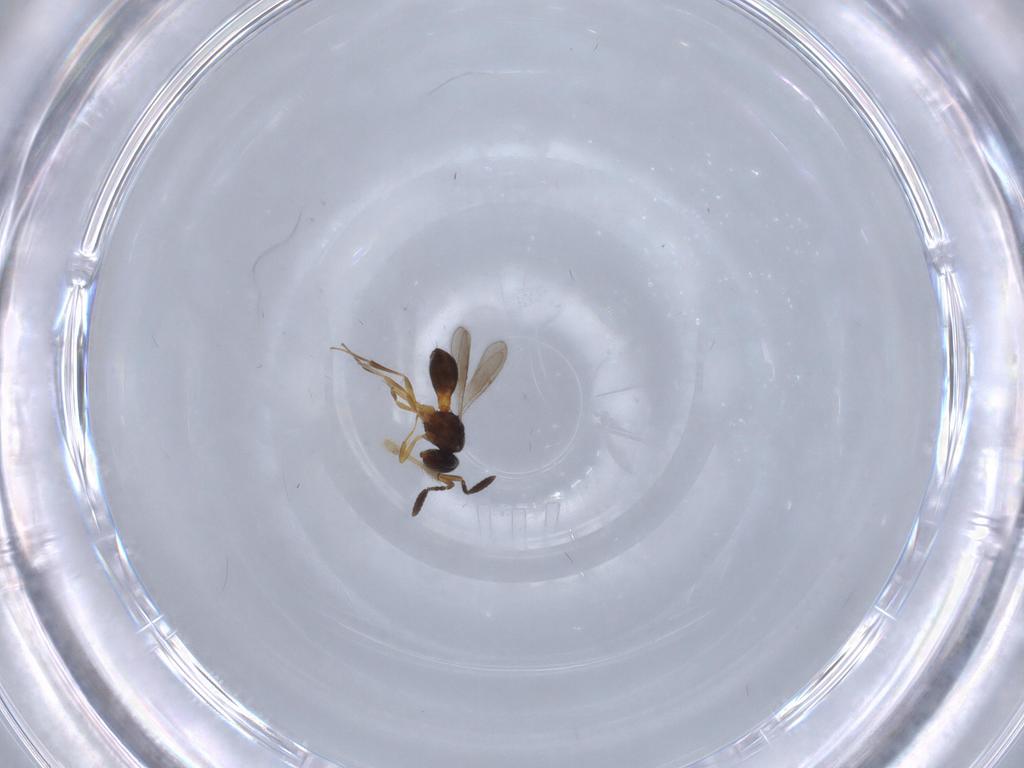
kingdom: Animalia
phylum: Arthropoda
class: Insecta
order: Hymenoptera
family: Scelionidae
